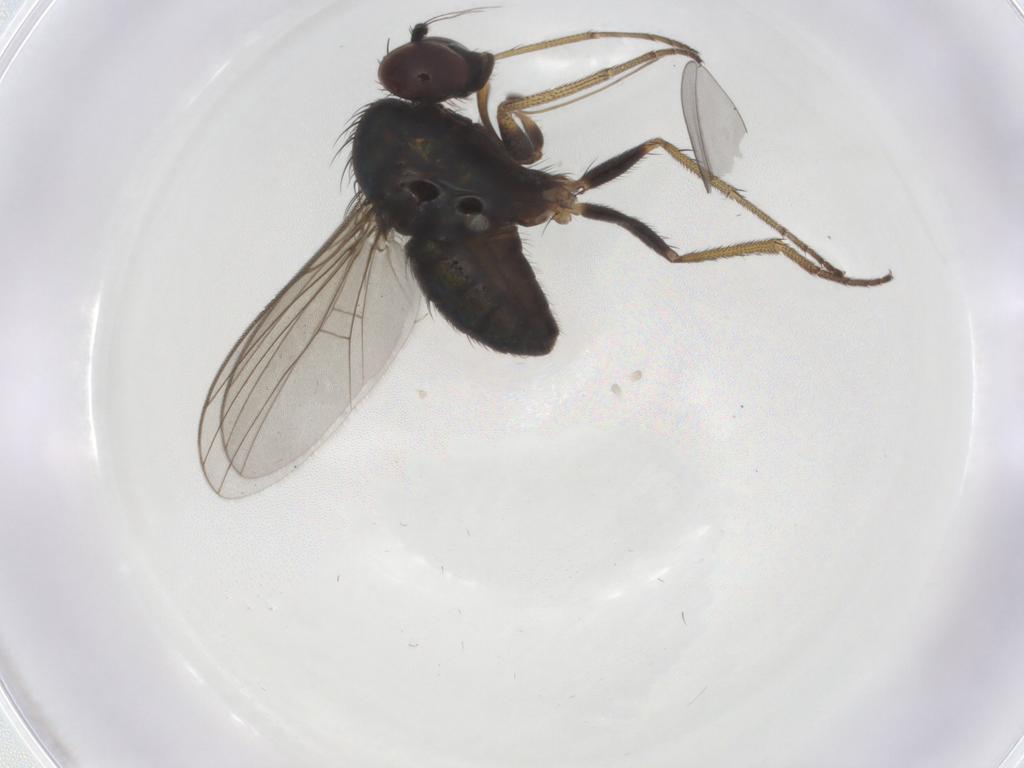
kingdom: Animalia
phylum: Arthropoda
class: Insecta
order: Diptera
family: Cecidomyiidae
